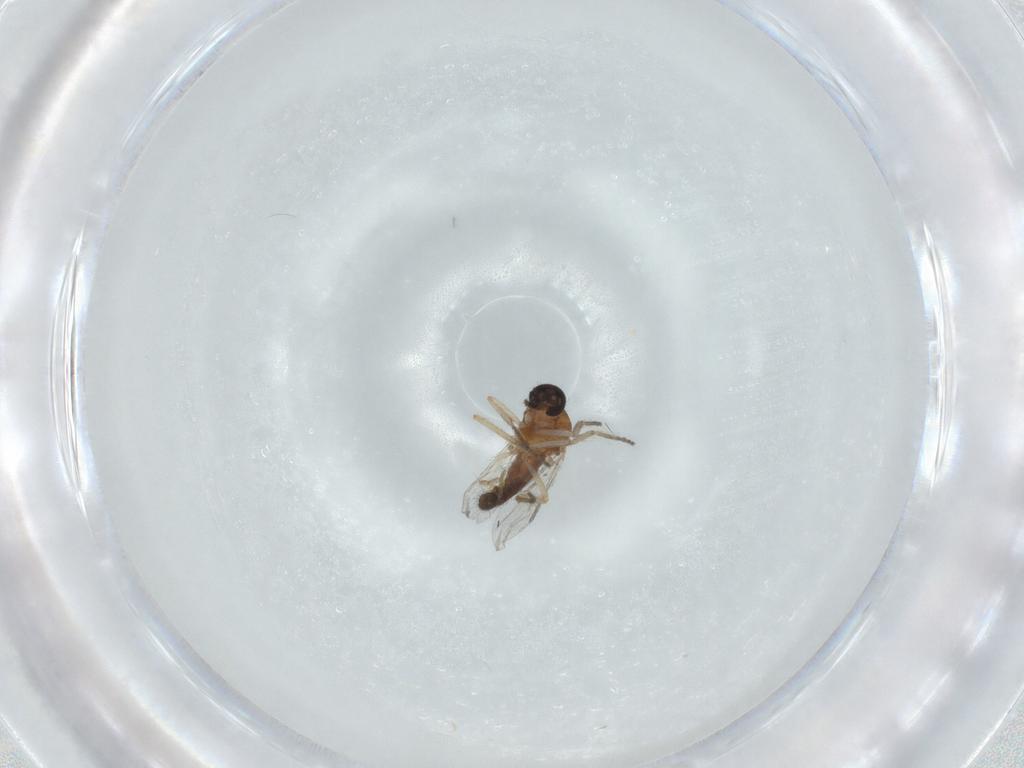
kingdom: Animalia
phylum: Arthropoda
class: Insecta
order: Diptera
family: Ceratopogonidae
